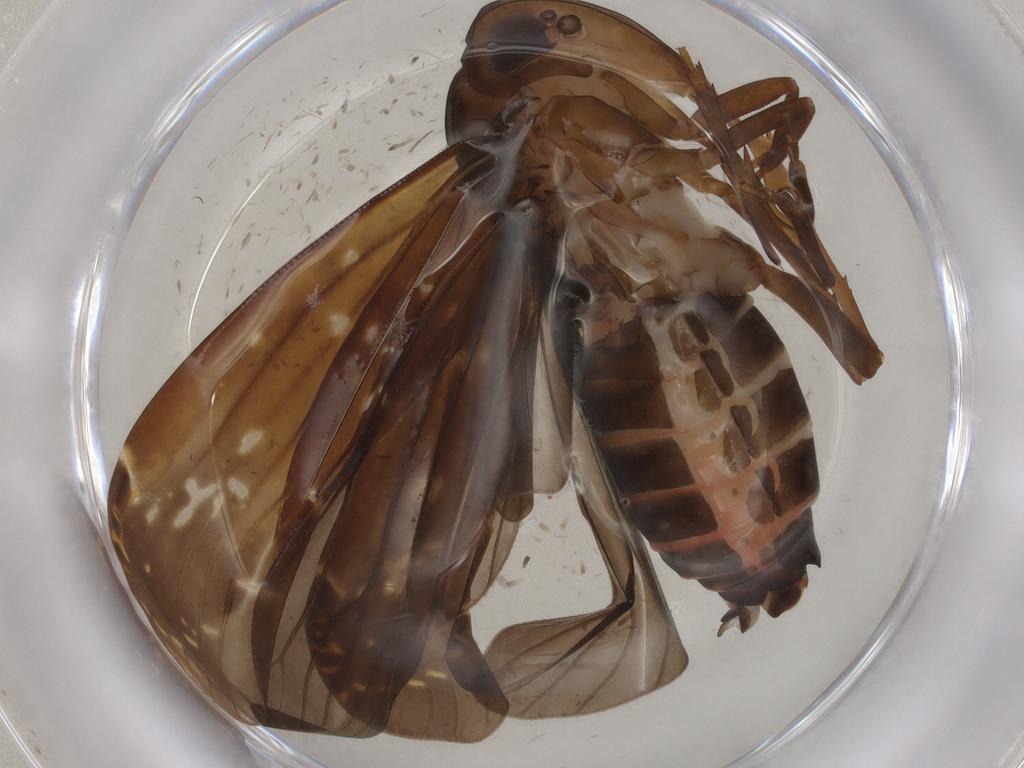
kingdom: Animalia
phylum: Arthropoda
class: Insecta
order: Hemiptera
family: Achilidae
